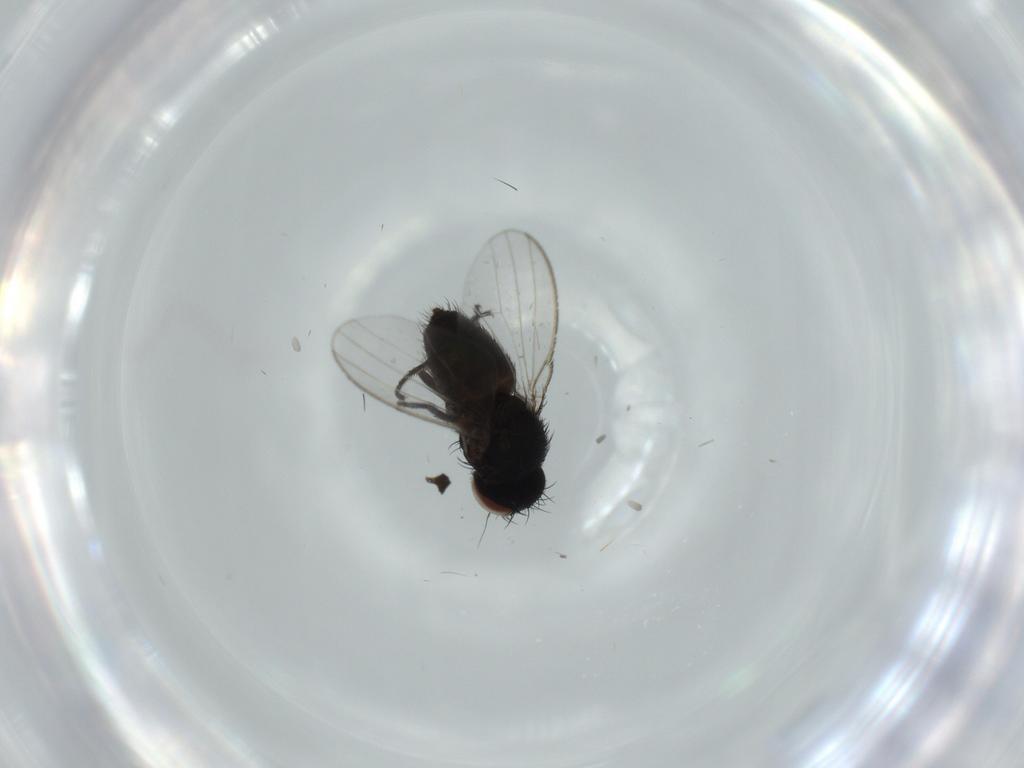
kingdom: Animalia
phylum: Arthropoda
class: Insecta
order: Diptera
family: Milichiidae
